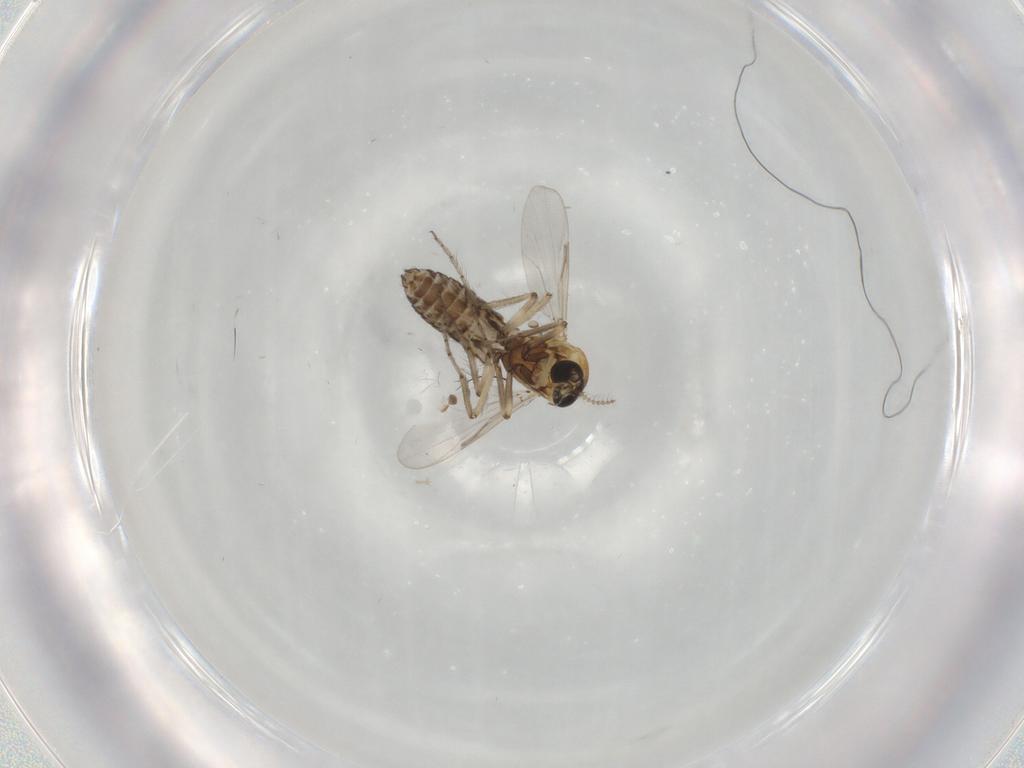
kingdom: Animalia
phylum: Arthropoda
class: Insecta
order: Diptera
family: Ceratopogonidae
